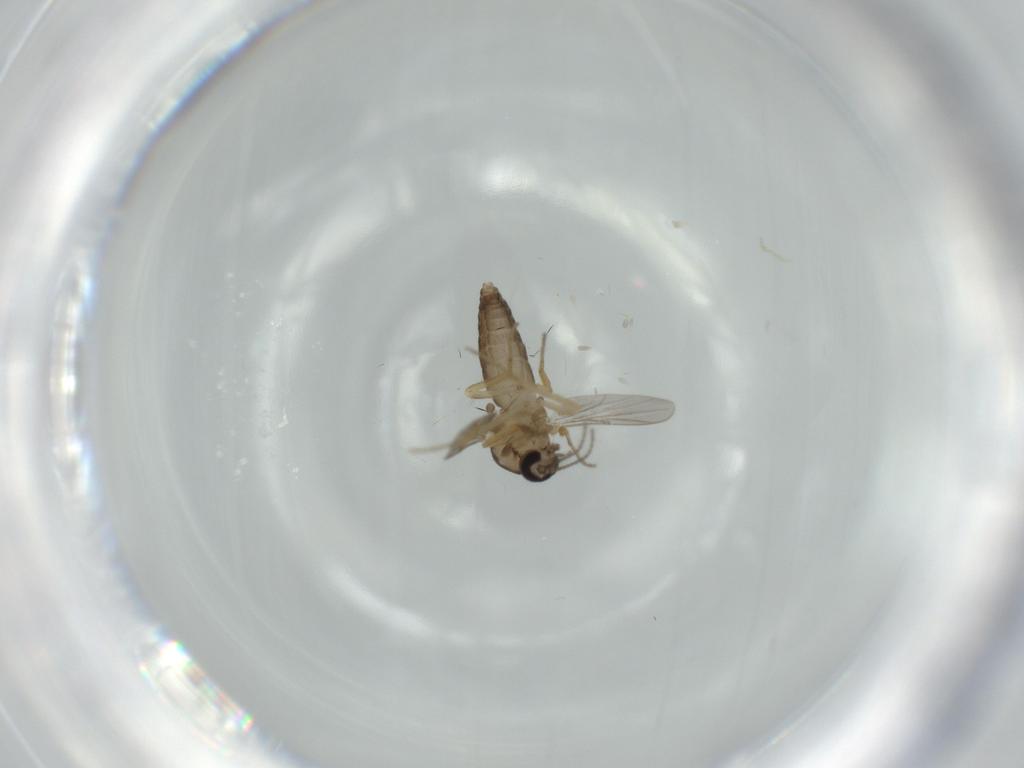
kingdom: Animalia
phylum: Arthropoda
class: Insecta
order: Diptera
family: Ceratopogonidae
